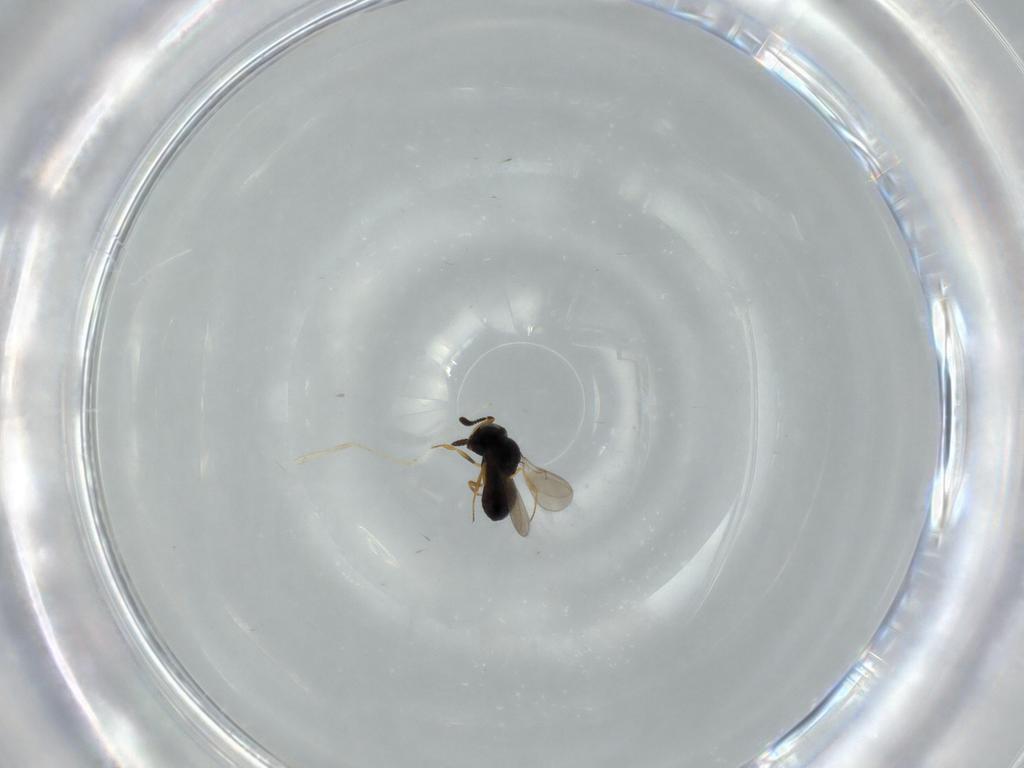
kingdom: Animalia
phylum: Arthropoda
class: Insecta
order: Hymenoptera
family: Scelionidae
